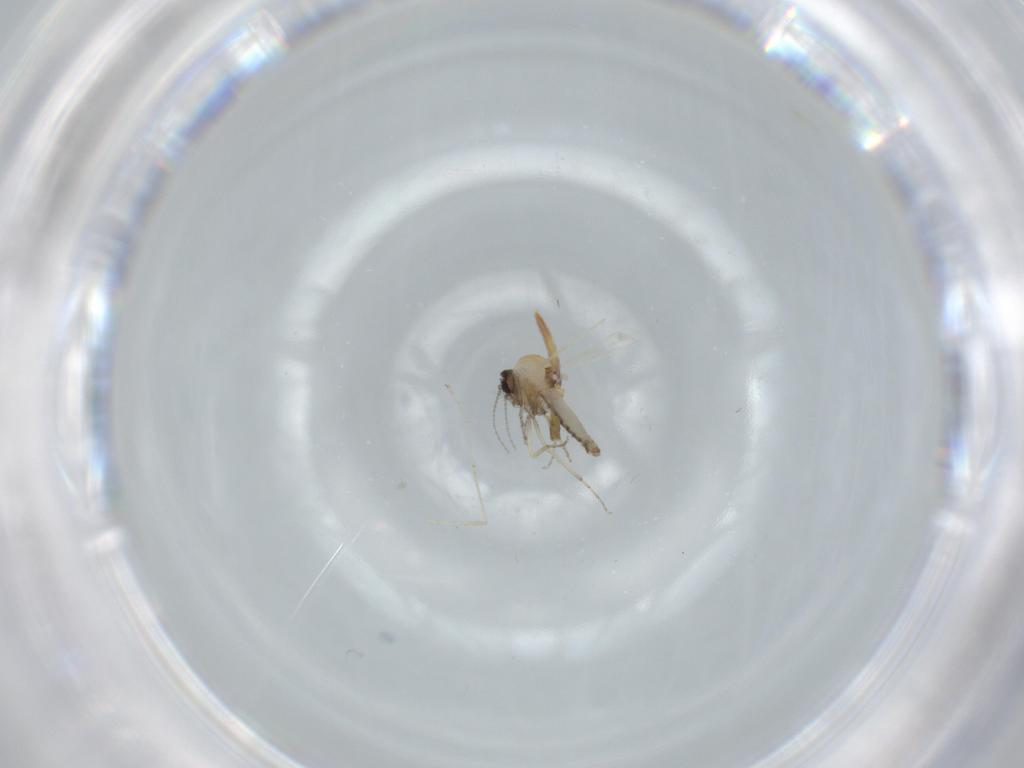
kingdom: Animalia
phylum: Arthropoda
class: Insecta
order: Diptera
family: Cecidomyiidae
